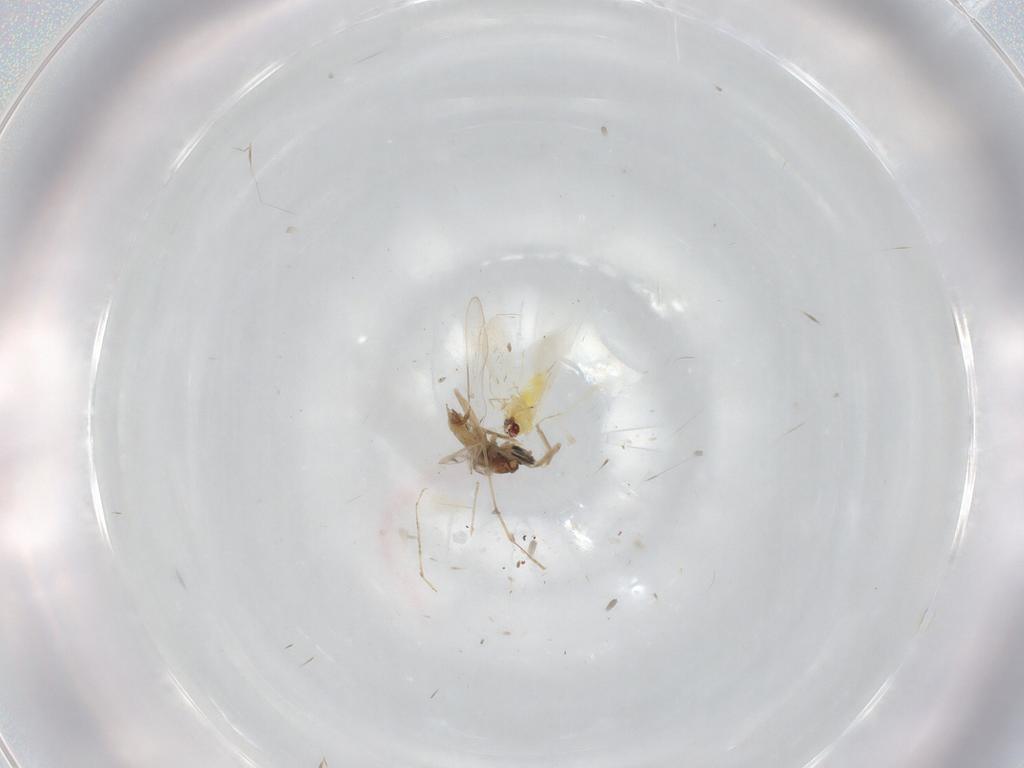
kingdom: Animalia
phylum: Arthropoda
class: Insecta
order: Diptera
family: Cecidomyiidae
